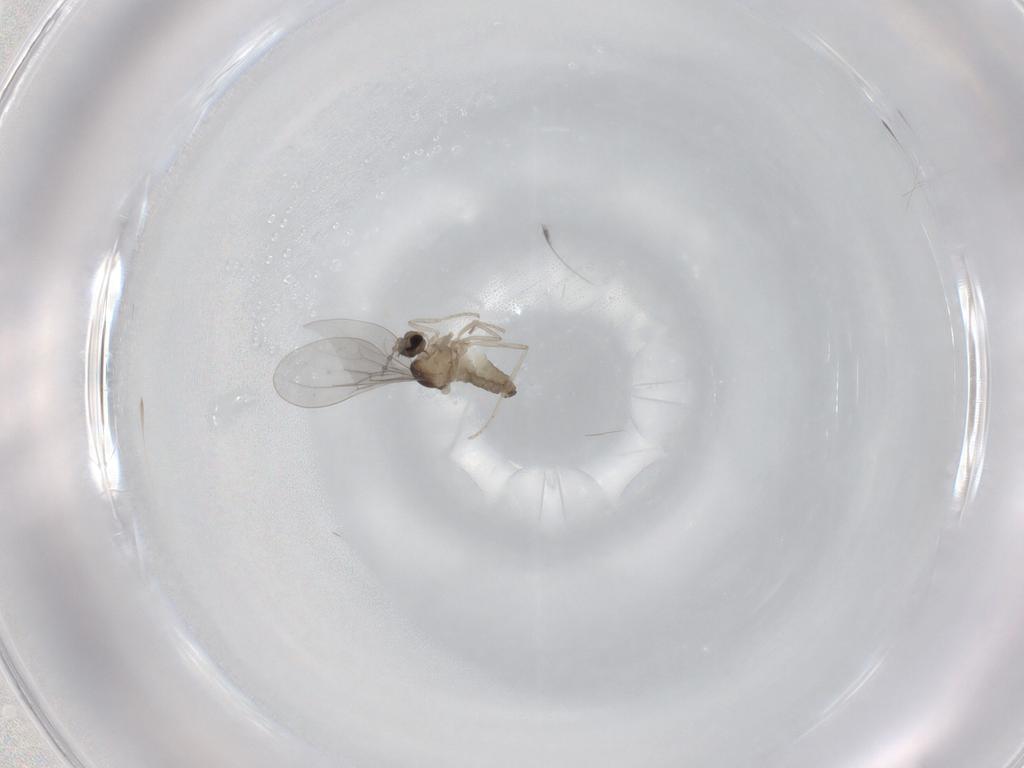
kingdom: Animalia
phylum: Arthropoda
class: Insecta
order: Diptera
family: Cecidomyiidae
